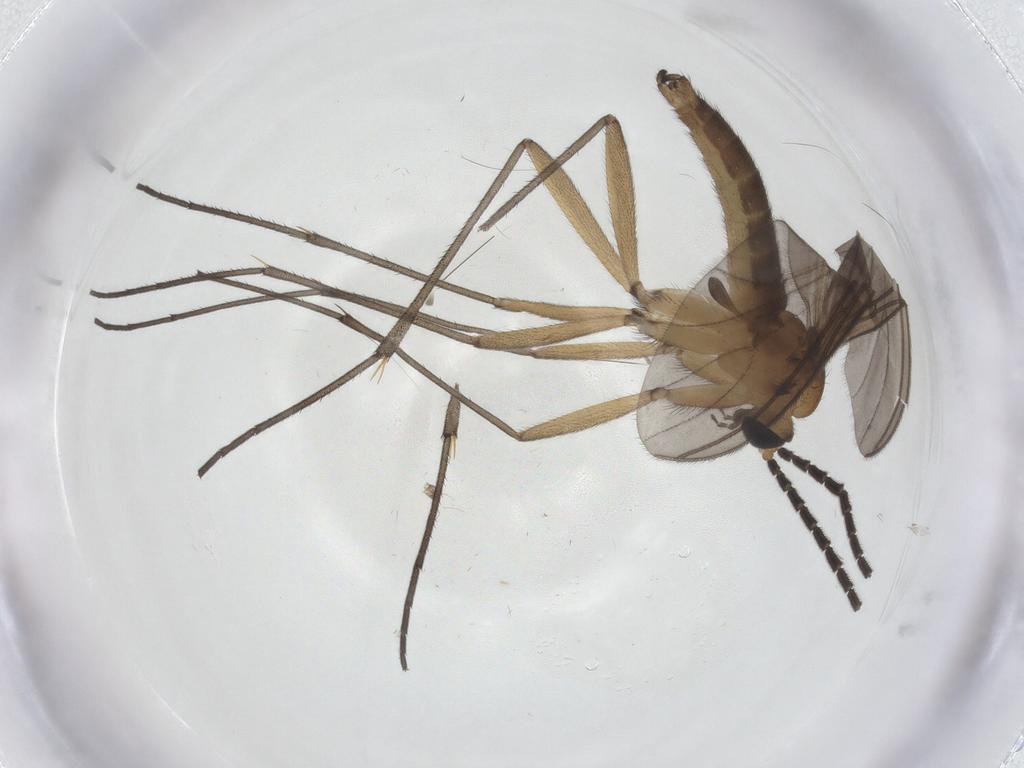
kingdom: Animalia
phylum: Arthropoda
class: Insecta
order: Diptera
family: Sciaridae
